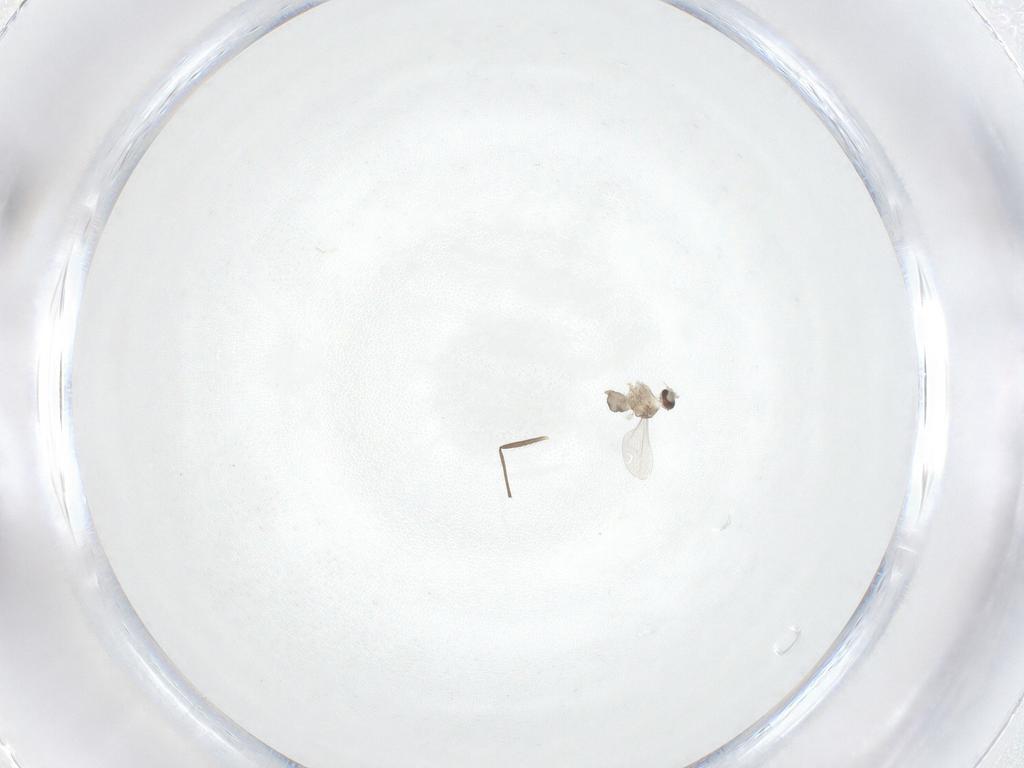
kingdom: Animalia
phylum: Arthropoda
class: Insecta
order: Diptera
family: Cecidomyiidae
